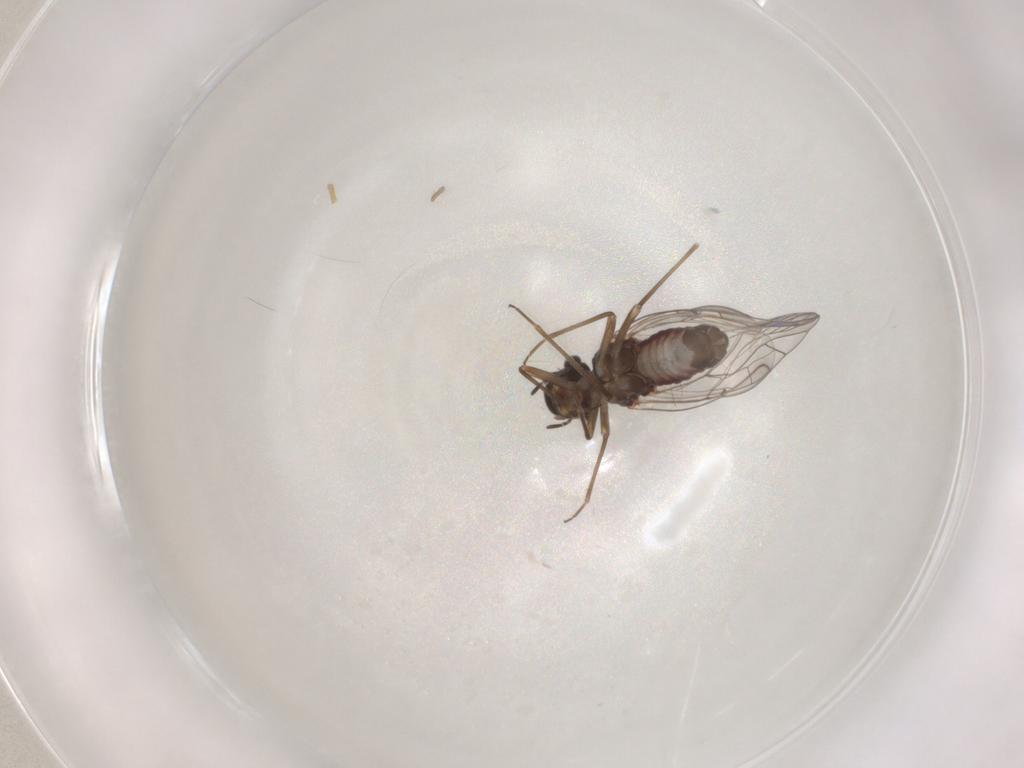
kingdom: Animalia
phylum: Arthropoda
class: Insecta
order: Psocodea
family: Lachesillidae
